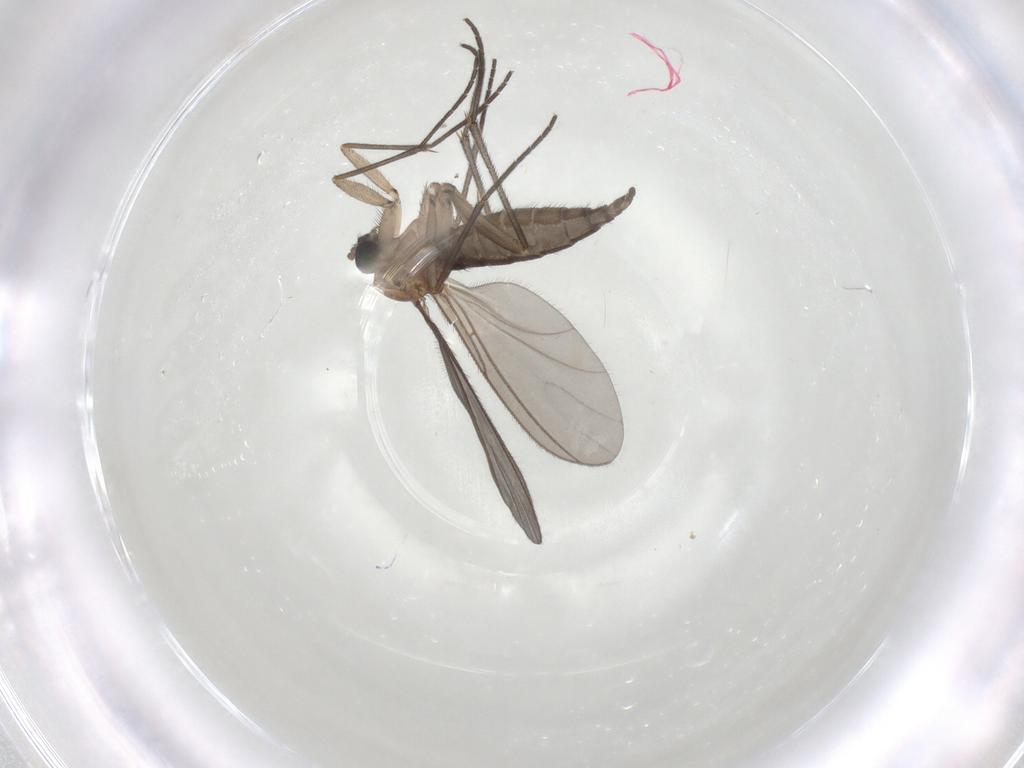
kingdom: Animalia
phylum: Arthropoda
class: Insecta
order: Diptera
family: Sciaridae
